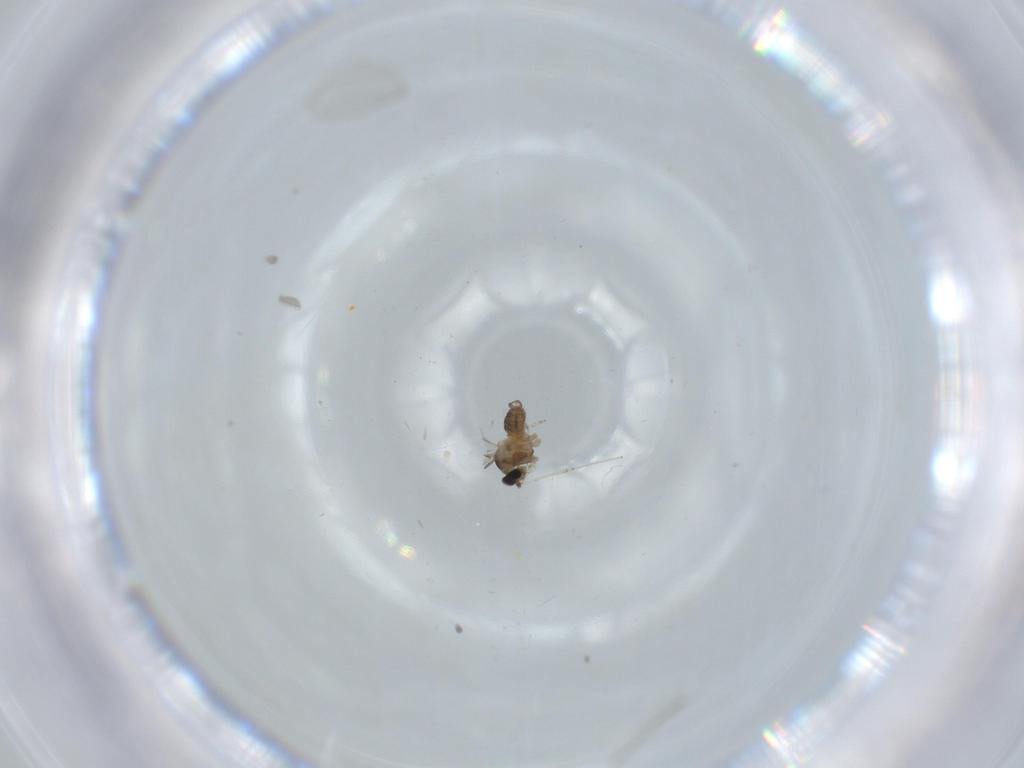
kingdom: Animalia
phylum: Arthropoda
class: Insecta
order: Diptera
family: Cecidomyiidae
